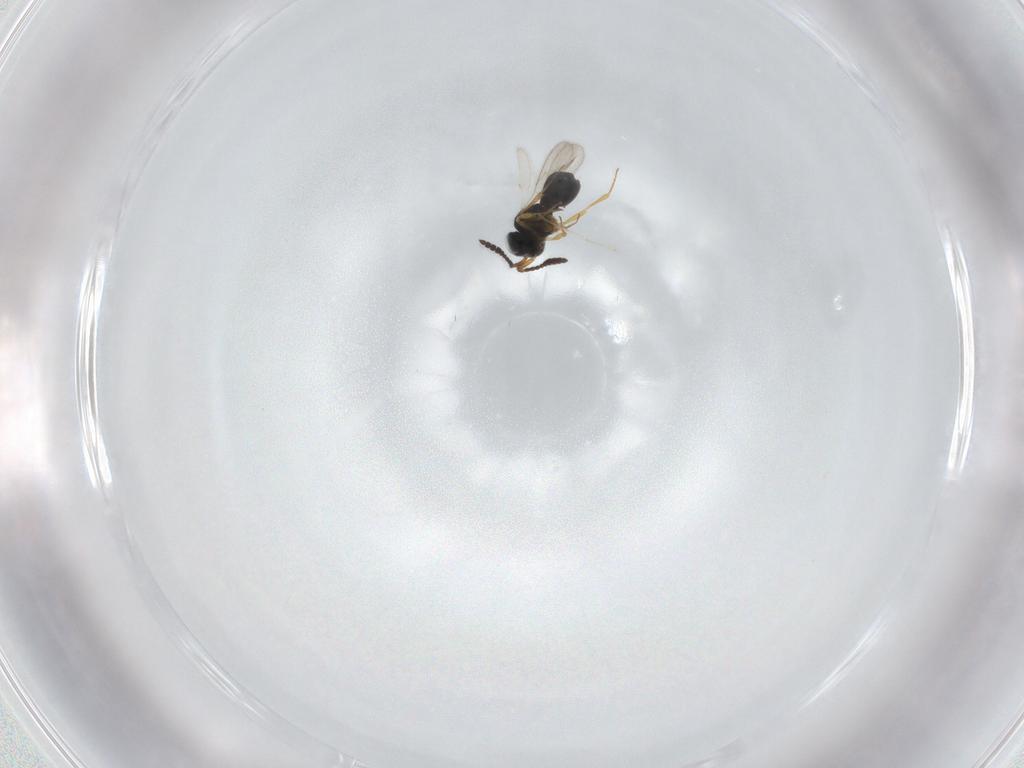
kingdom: Animalia
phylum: Arthropoda
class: Insecta
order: Hymenoptera
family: Scelionidae
